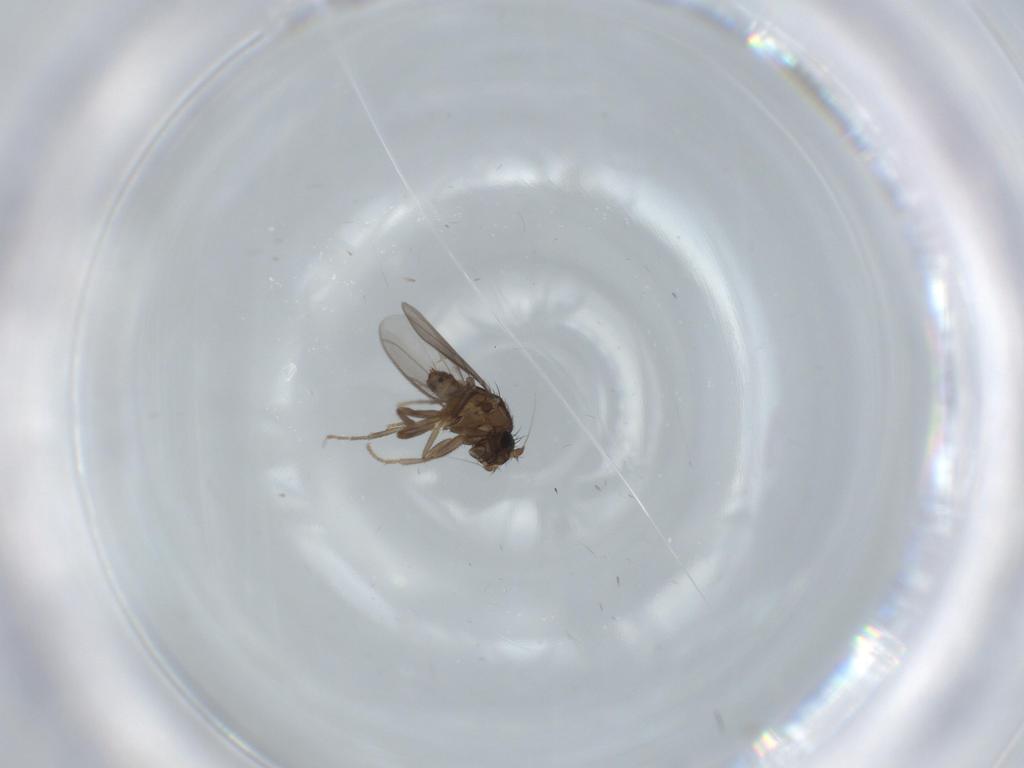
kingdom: Animalia
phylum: Arthropoda
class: Insecta
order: Diptera
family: Sphaeroceridae
